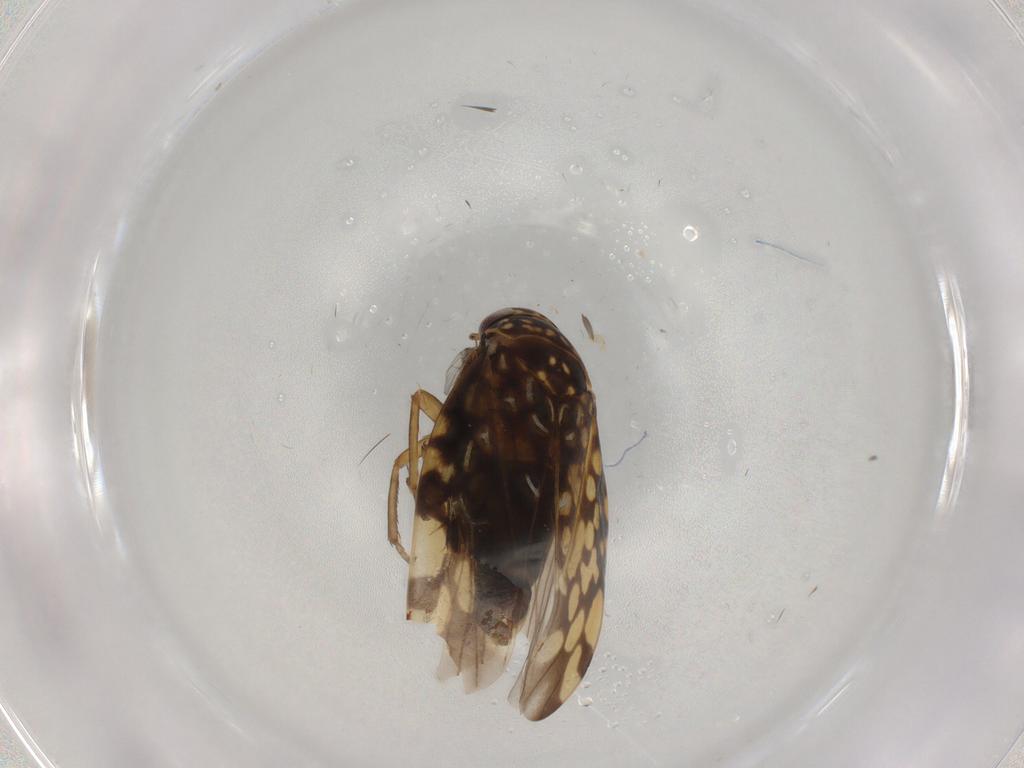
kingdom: Animalia
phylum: Arthropoda
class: Insecta
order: Hemiptera
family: Cicadellidae
